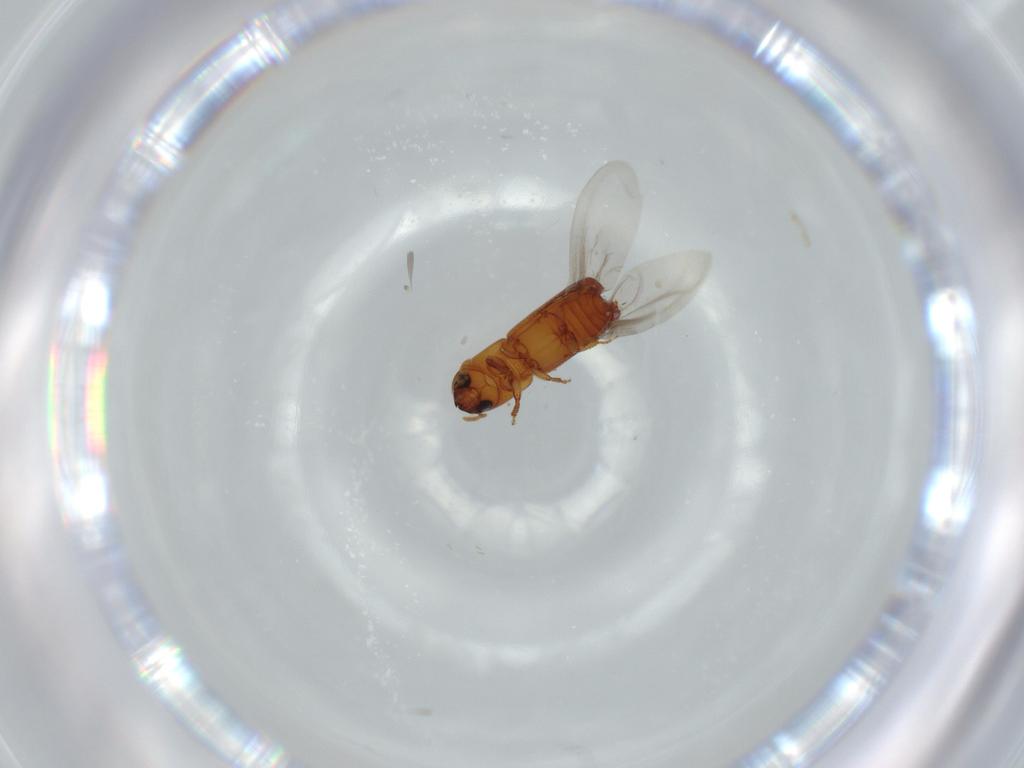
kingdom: Animalia
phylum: Arthropoda
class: Insecta
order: Coleoptera
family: Curculionidae
